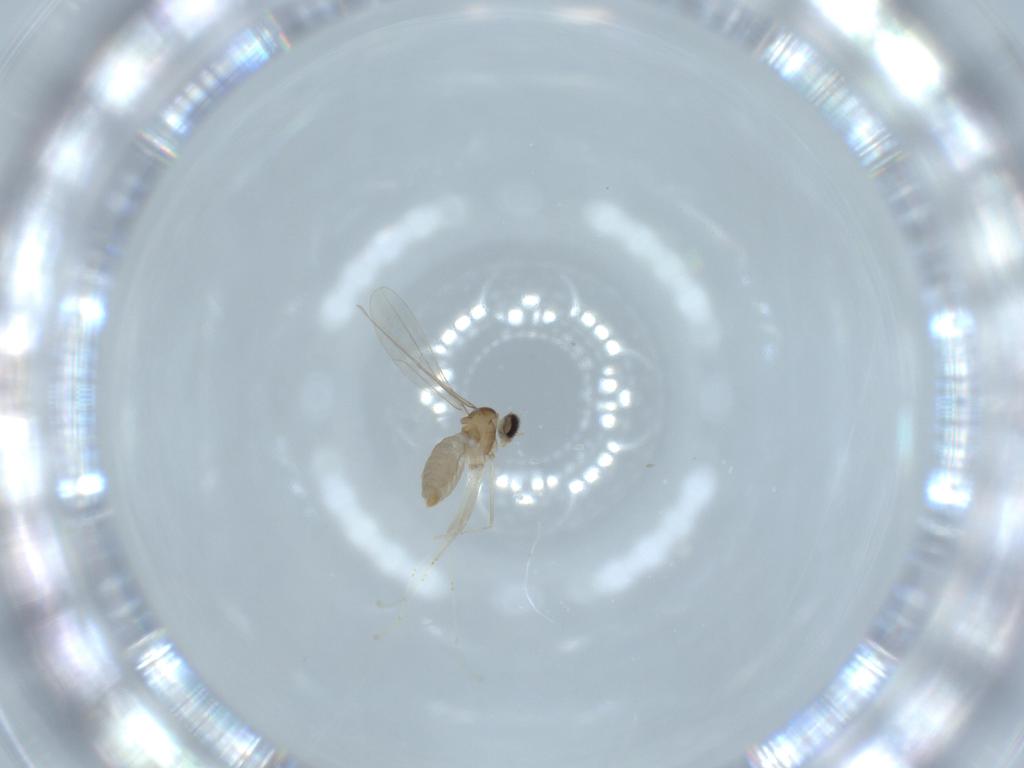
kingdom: Animalia
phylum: Arthropoda
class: Insecta
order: Diptera
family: Cecidomyiidae
